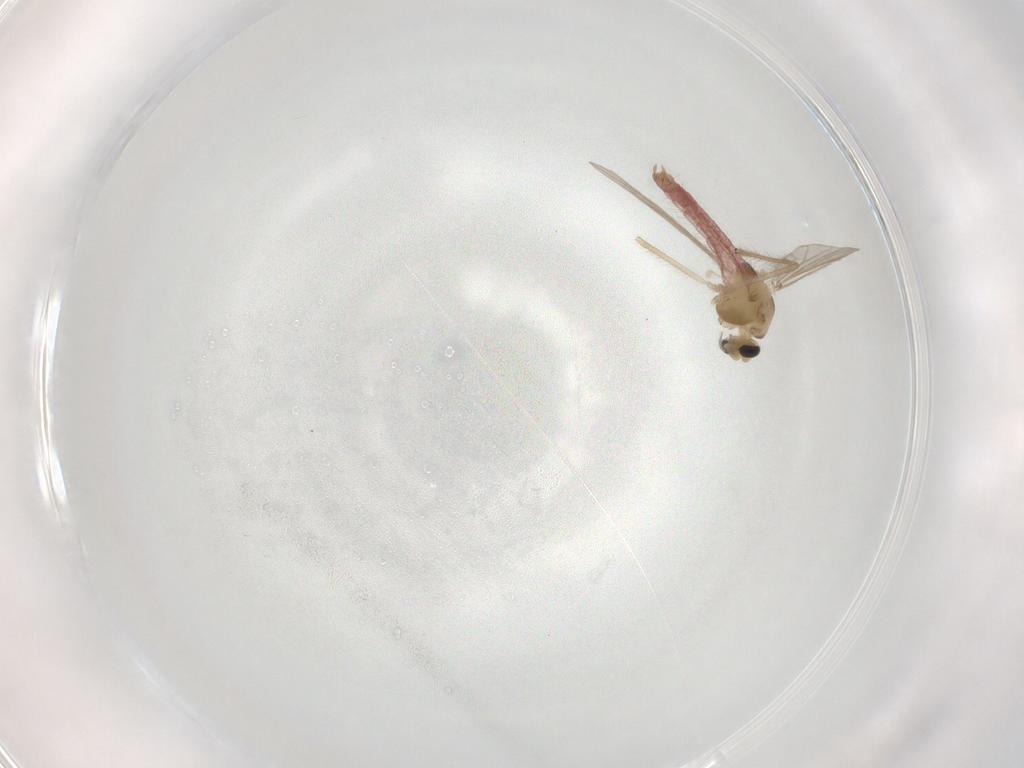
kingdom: Animalia
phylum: Arthropoda
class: Insecta
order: Diptera
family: Chironomidae
